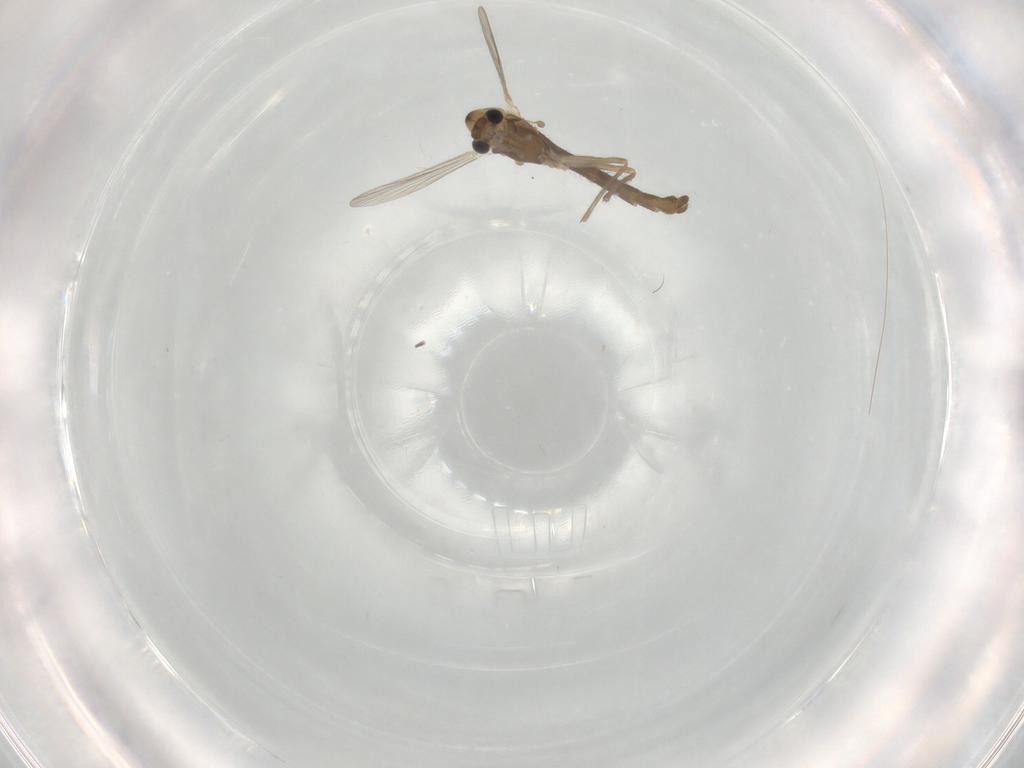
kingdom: Animalia
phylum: Arthropoda
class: Insecta
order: Diptera
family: Chironomidae
